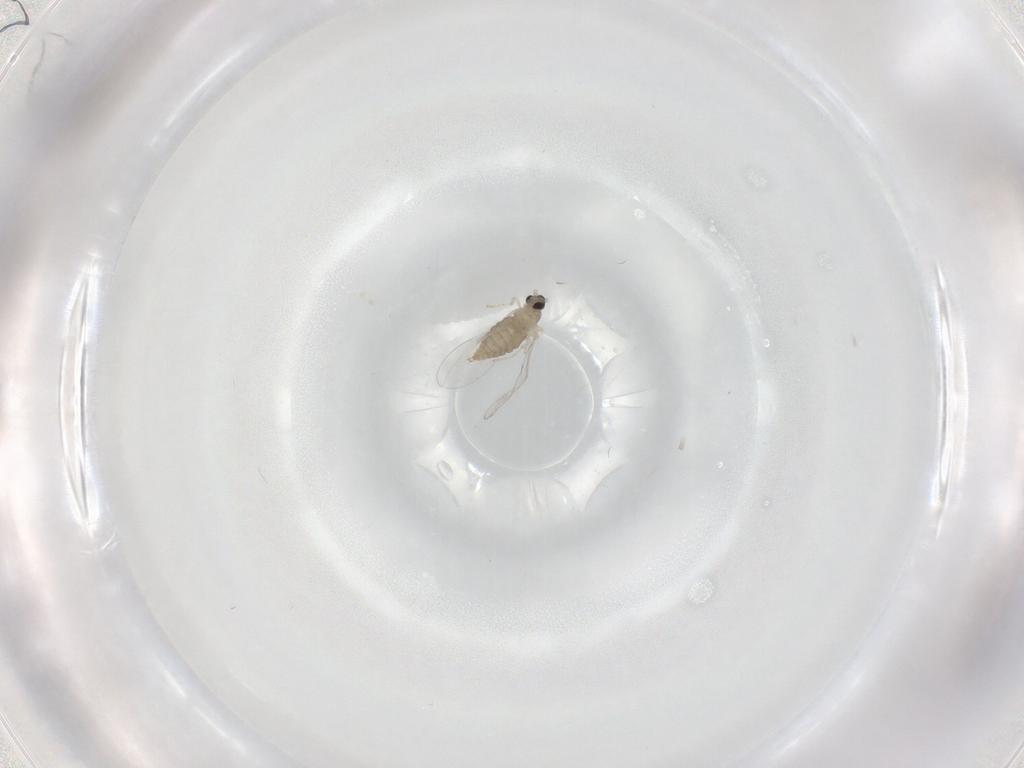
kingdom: Animalia
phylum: Arthropoda
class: Insecta
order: Diptera
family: Cecidomyiidae
